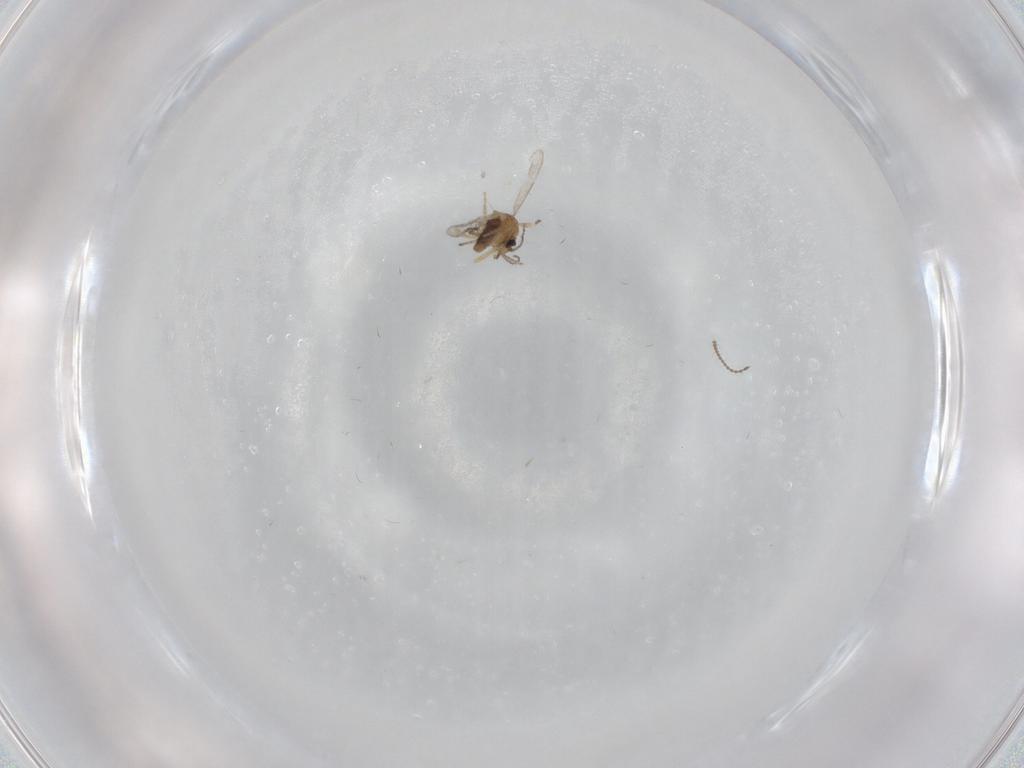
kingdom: Animalia
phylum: Arthropoda
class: Insecta
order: Diptera
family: Ceratopogonidae
